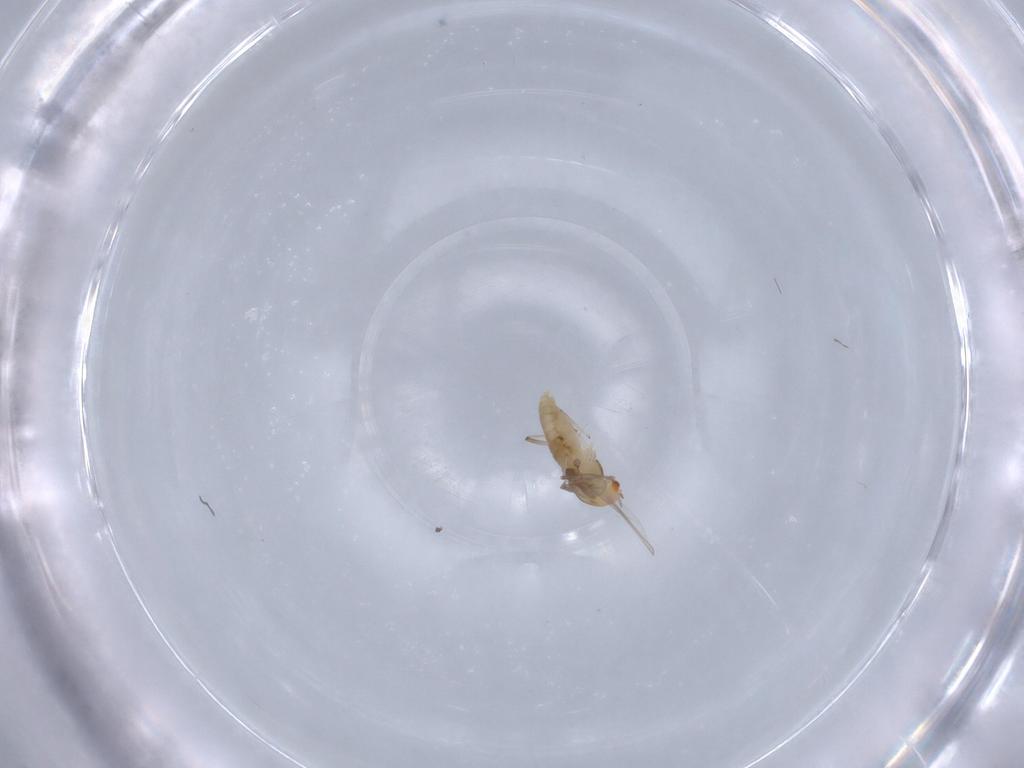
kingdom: Animalia
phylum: Arthropoda
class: Insecta
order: Diptera
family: Chironomidae
